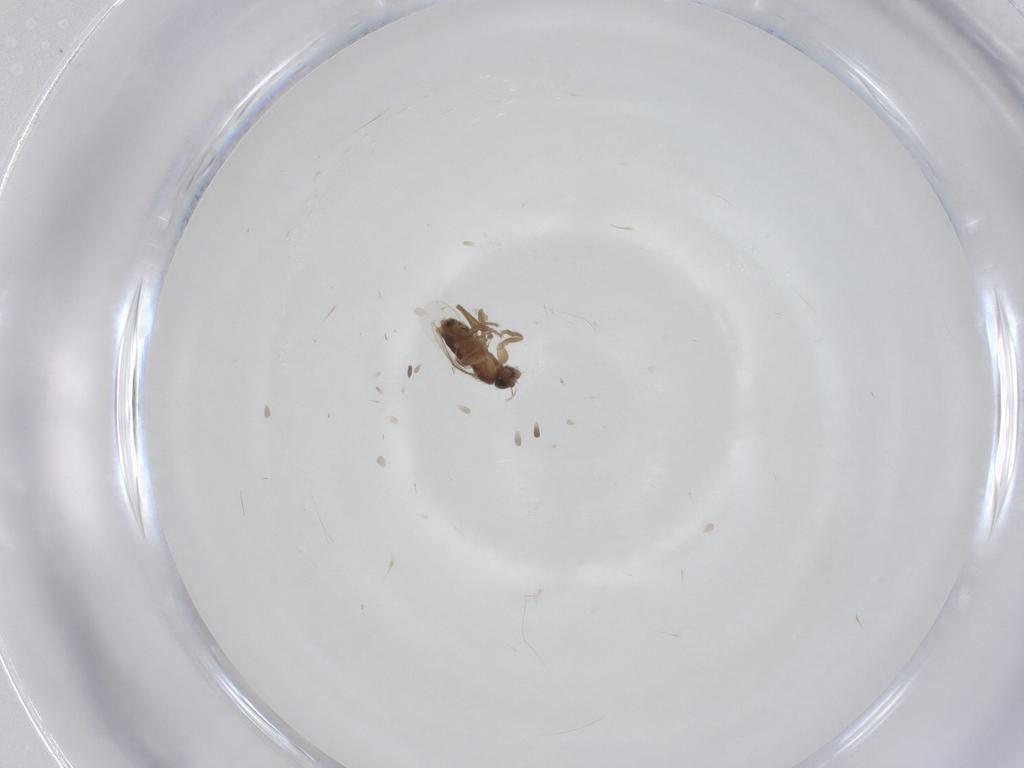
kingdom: Animalia
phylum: Arthropoda
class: Insecta
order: Diptera
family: Phoridae
